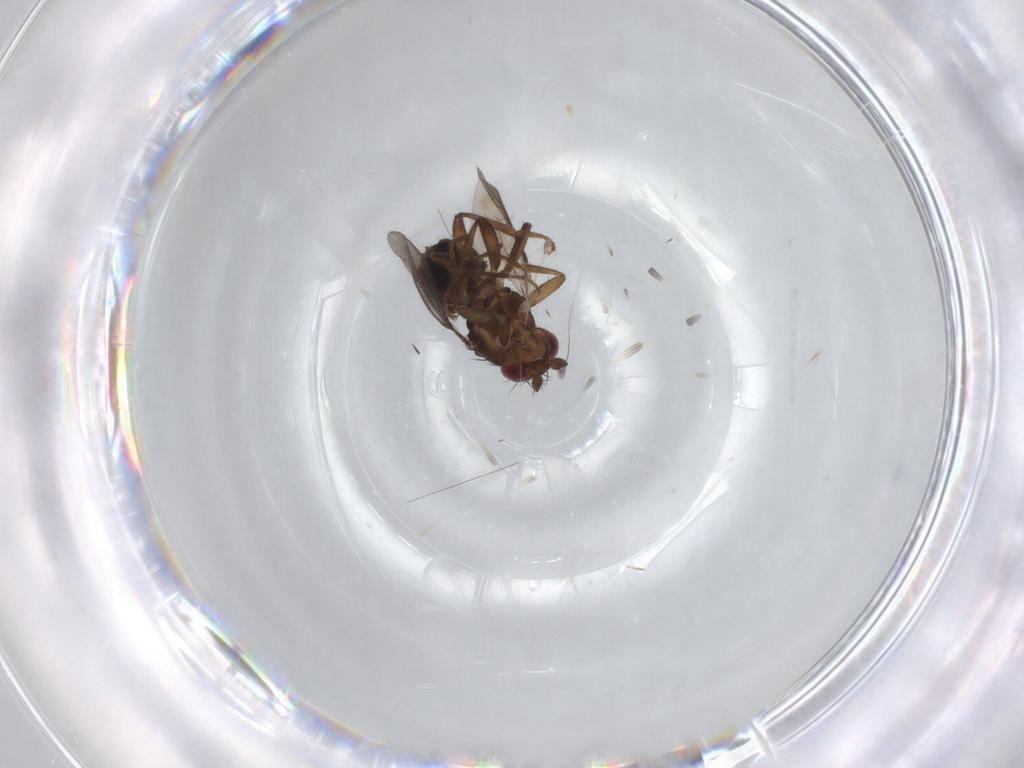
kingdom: Animalia
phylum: Arthropoda
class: Insecta
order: Diptera
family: Sphaeroceridae
